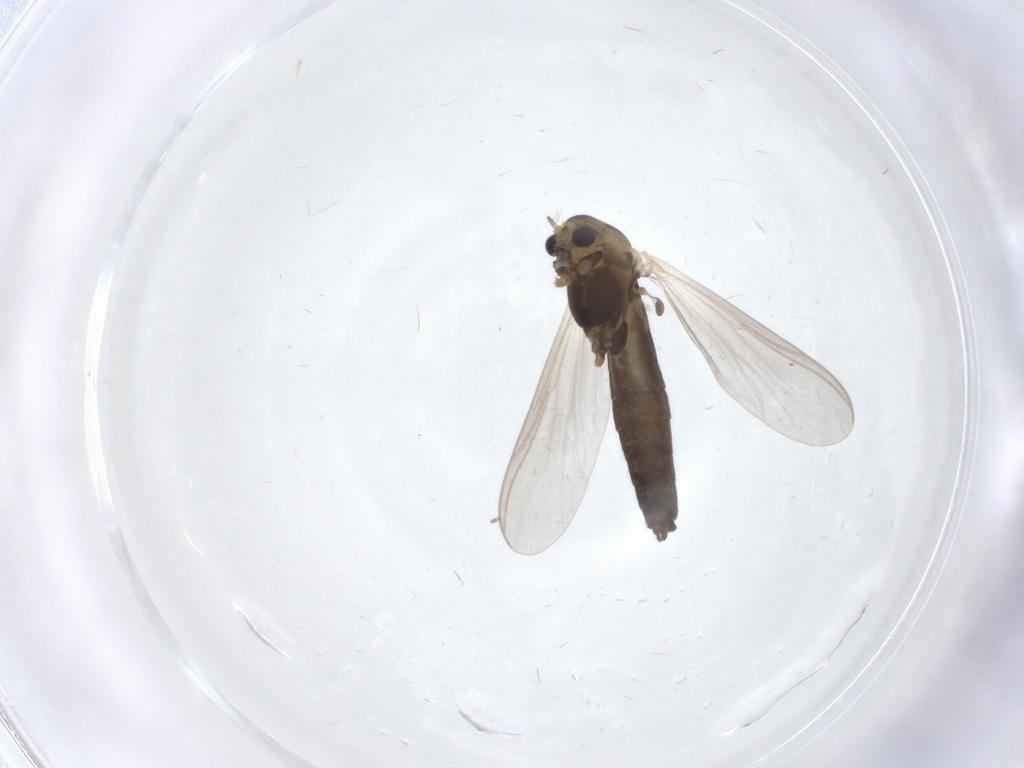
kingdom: Animalia
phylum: Arthropoda
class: Insecta
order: Diptera
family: Chironomidae
